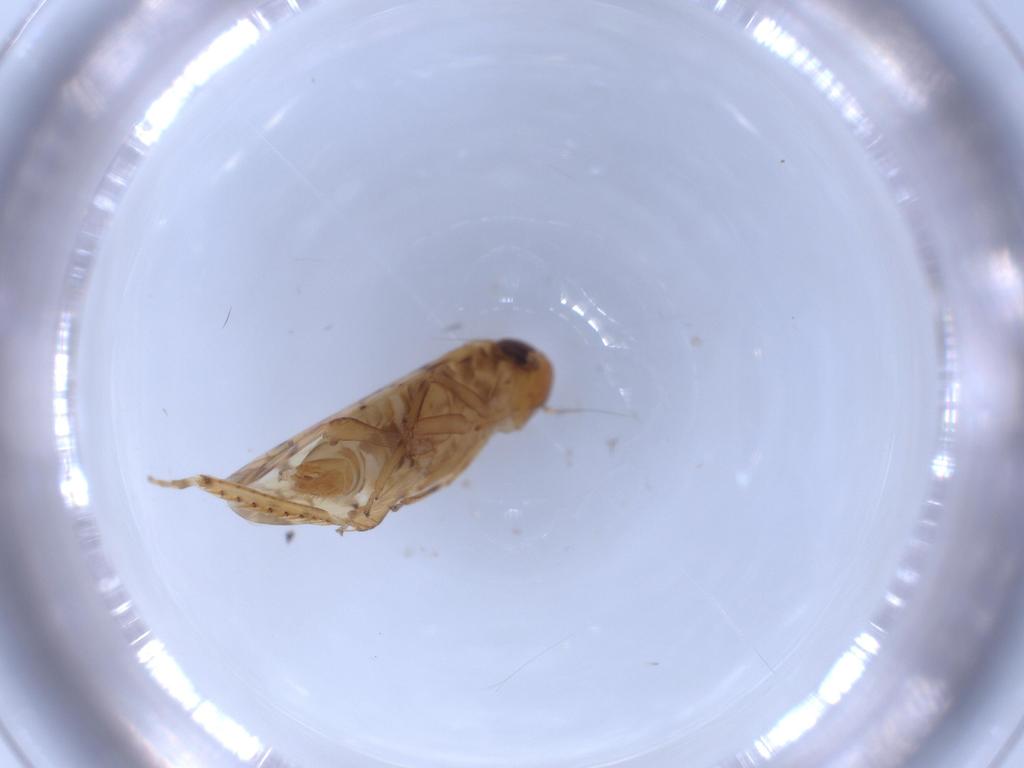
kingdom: Animalia
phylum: Arthropoda
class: Insecta
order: Hemiptera
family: Cicadellidae
